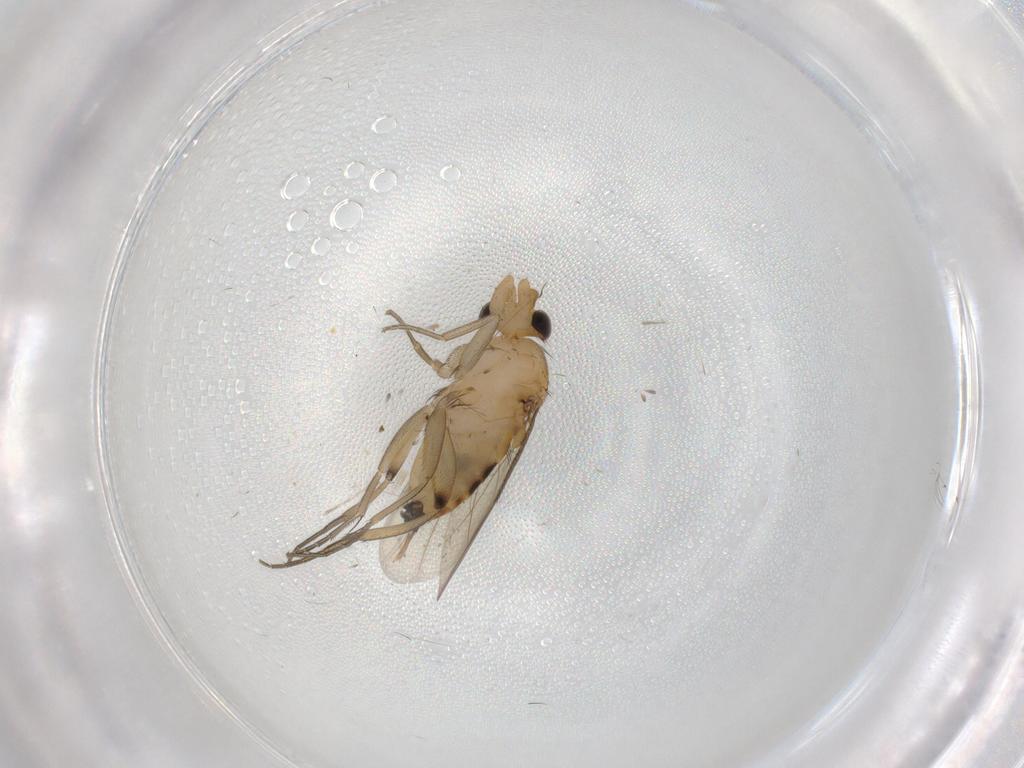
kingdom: Animalia
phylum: Arthropoda
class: Insecta
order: Diptera
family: Phoridae
